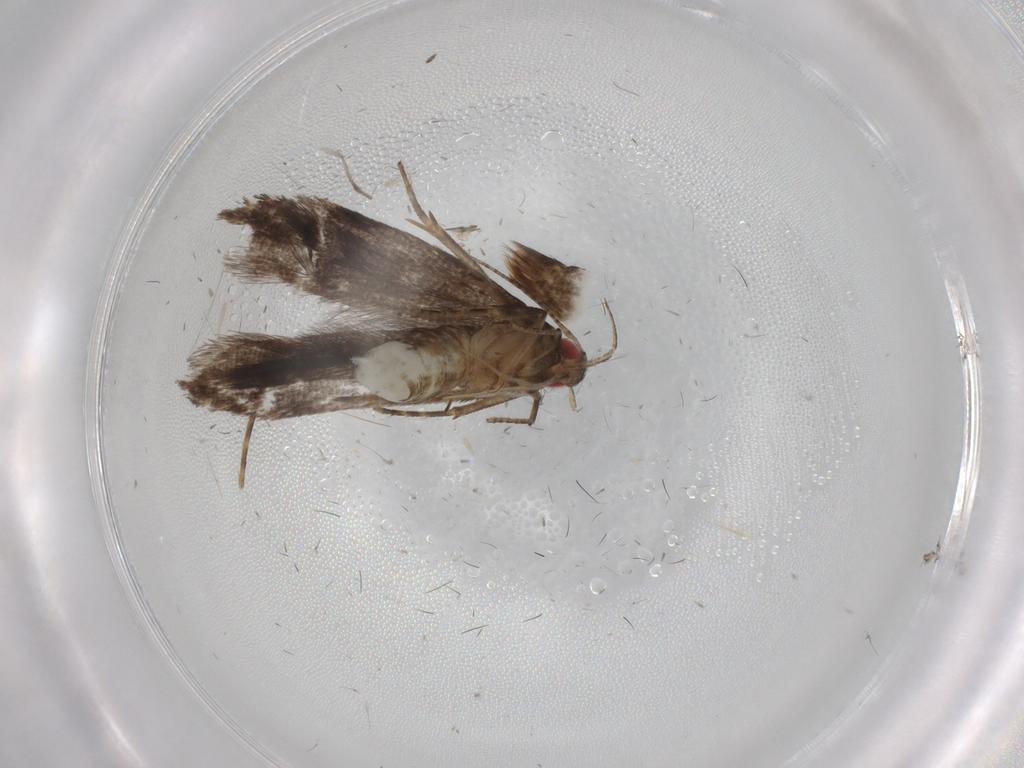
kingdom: Animalia
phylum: Arthropoda
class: Insecta
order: Lepidoptera
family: Gelechiidae
